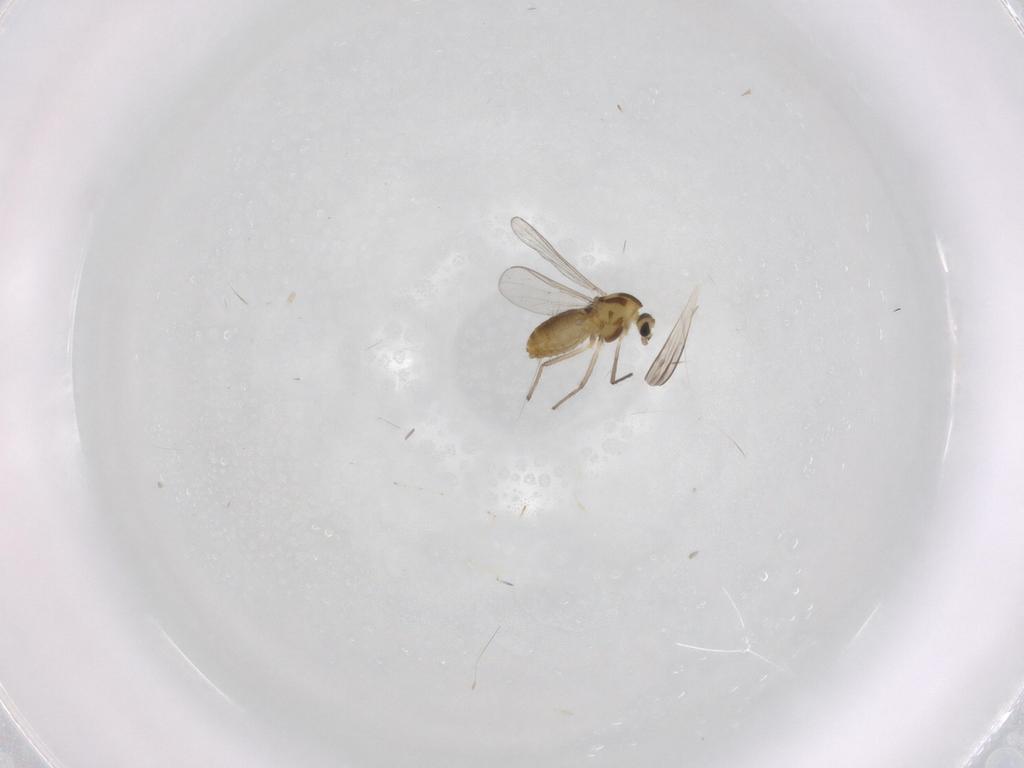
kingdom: Animalia
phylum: Arthropoda
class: Insecta
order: Diptera
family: Chironomidae
